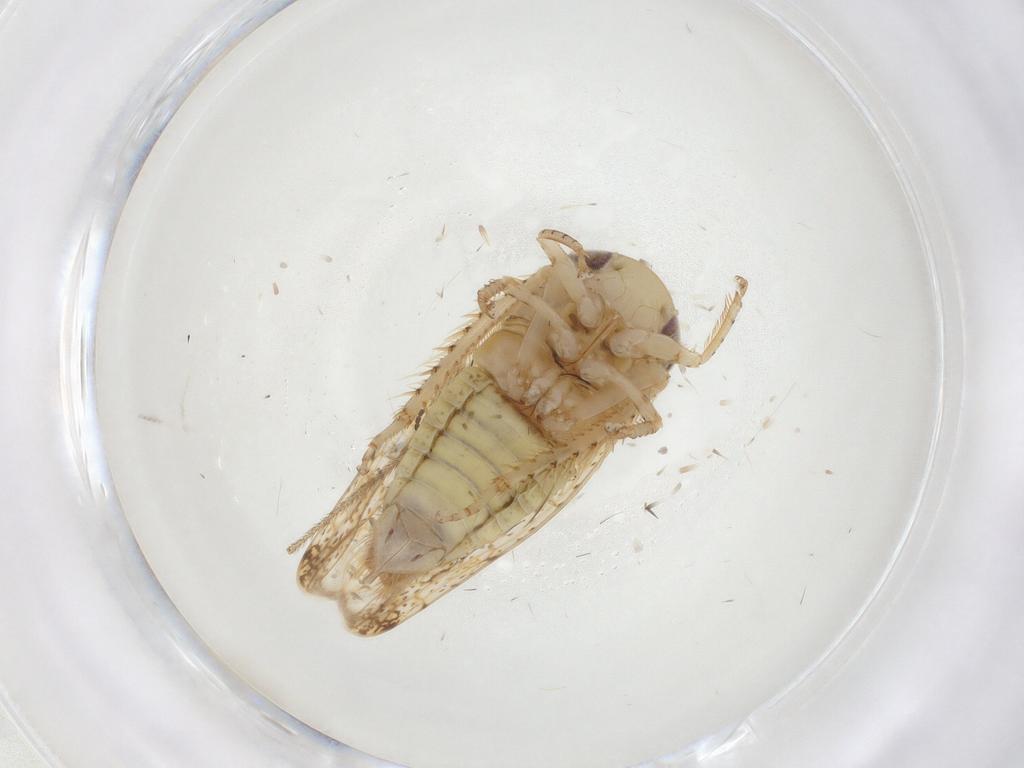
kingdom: Animalia
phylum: Arthropoda
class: Insecta
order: Hemiptera
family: Cicadellidae
